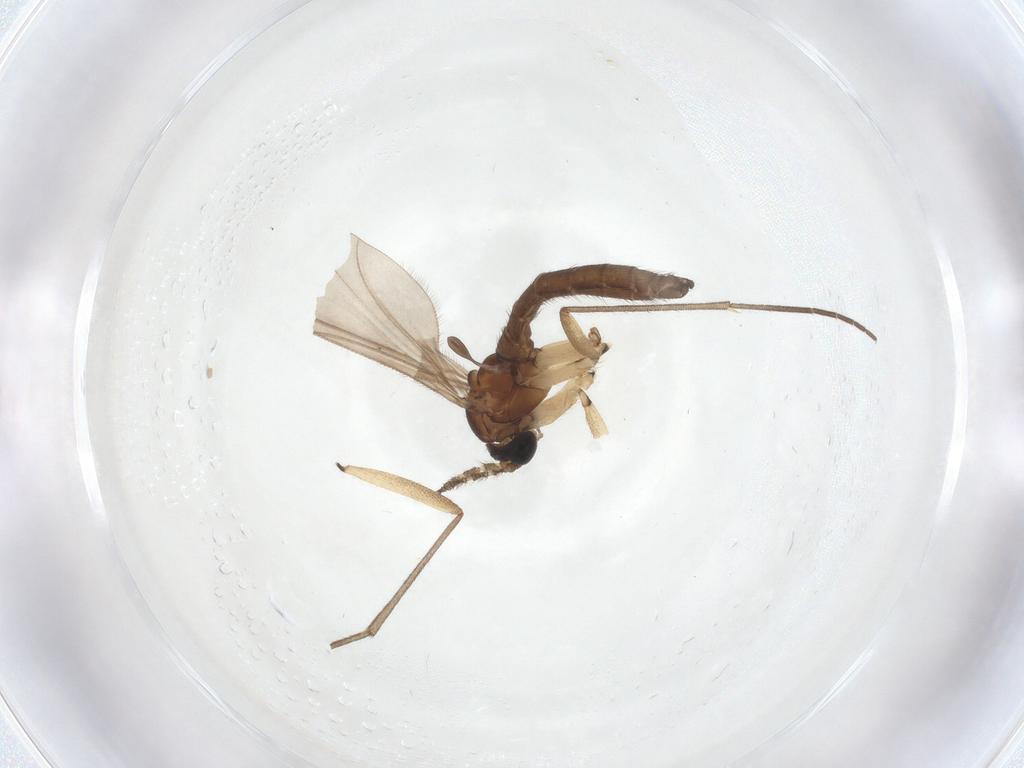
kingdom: Animalia
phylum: Arthropoda
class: Insecta
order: Diptera
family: Sciaridae
